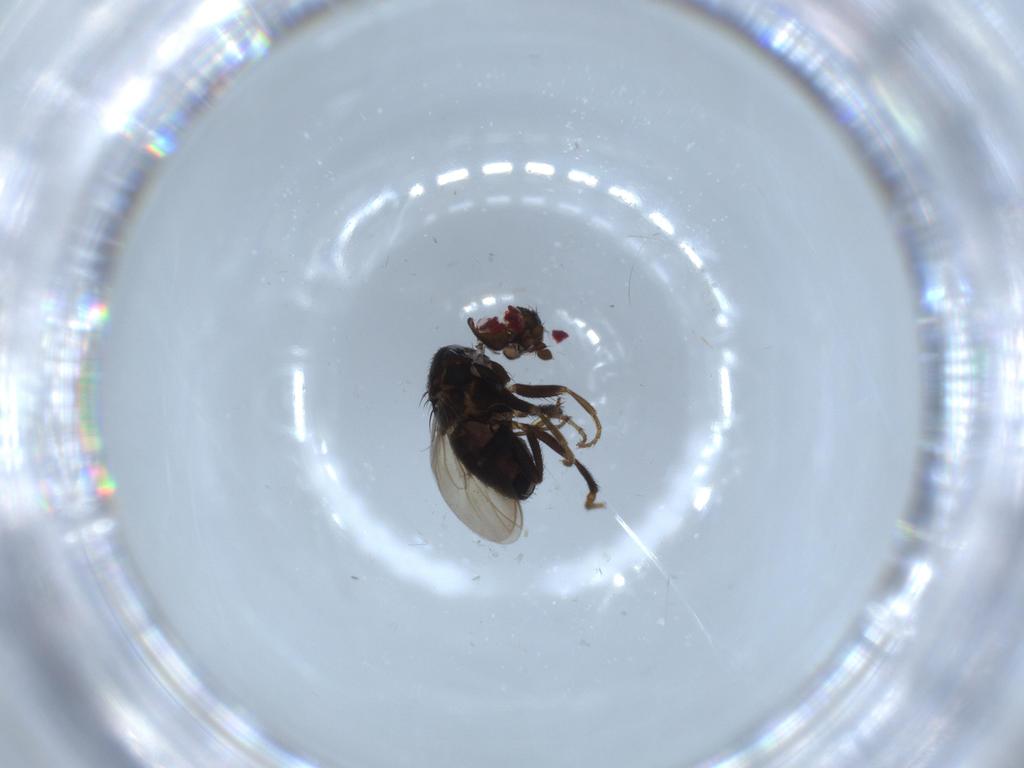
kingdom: Animalia
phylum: Arthropoda
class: Insecta
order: Diptera
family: Sphaeroceridae
